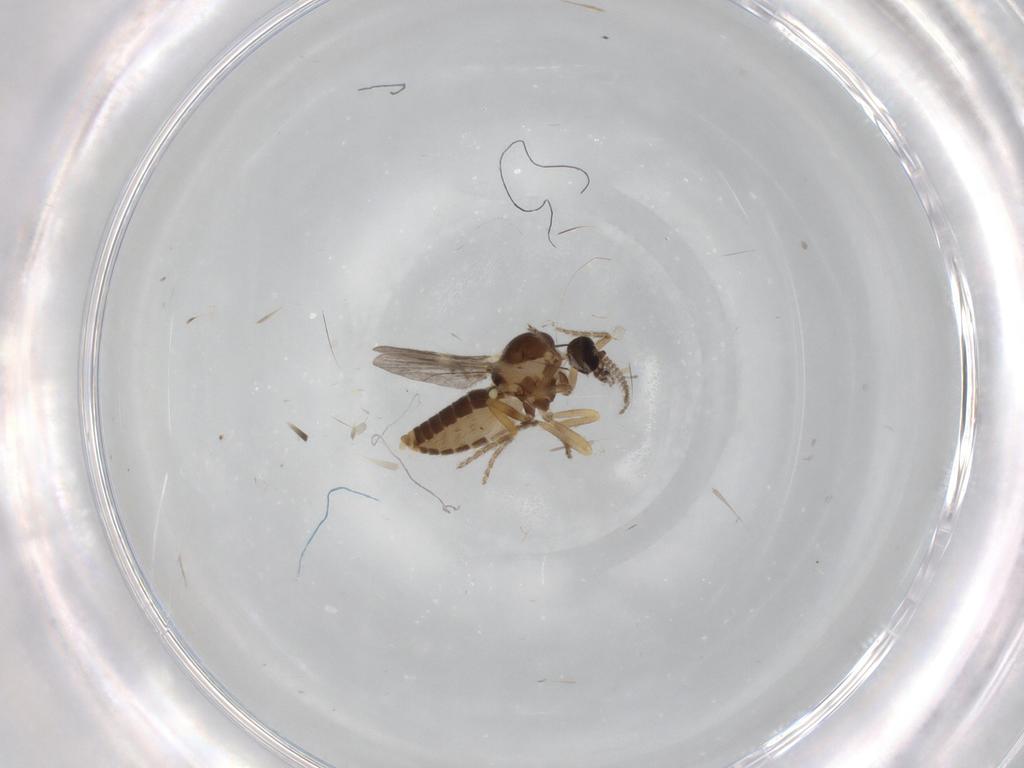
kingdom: Animalia
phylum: Arthropoda
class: Insecta
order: Diptera
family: Ceratopogonidae
